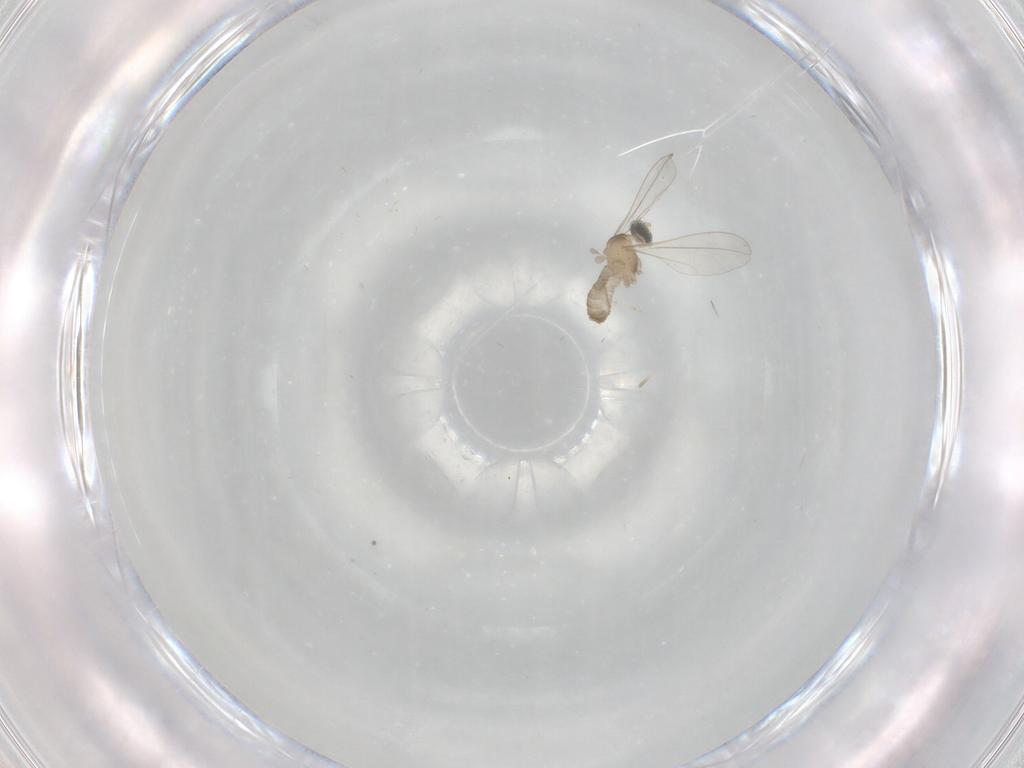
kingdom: Animalia
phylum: Arthropoda
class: Insecta
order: Diptera
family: Cecidomyiidae
